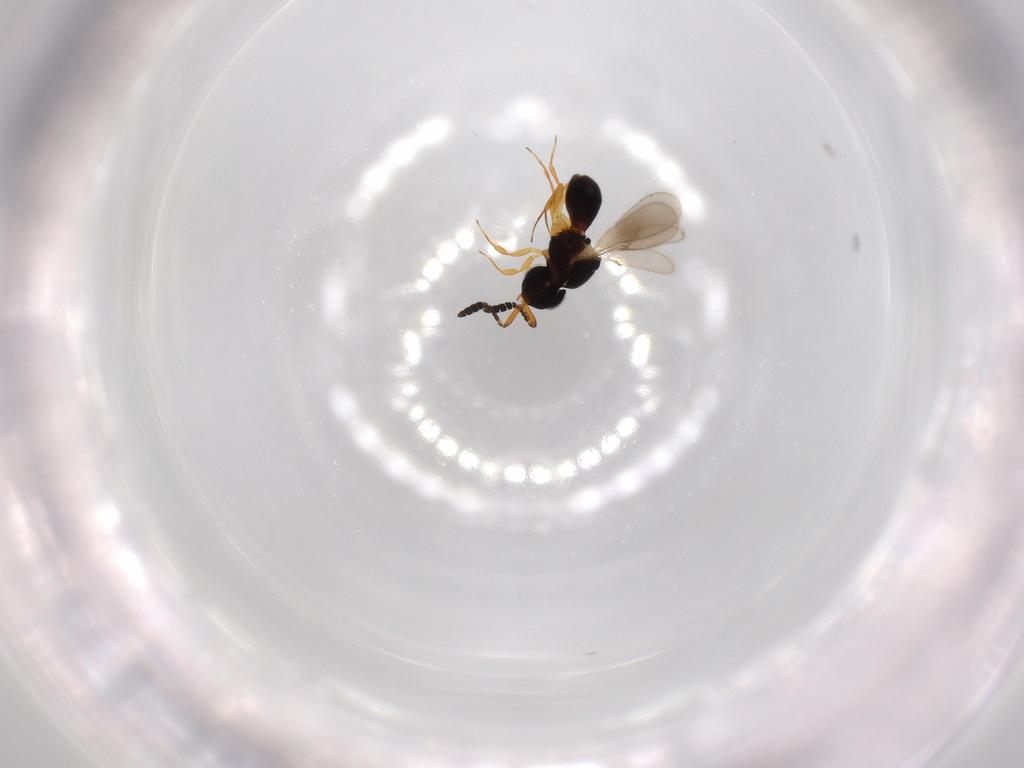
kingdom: Animalia
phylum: Arthropoda
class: Insecta
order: Hymenoptera
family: Scelionidae
